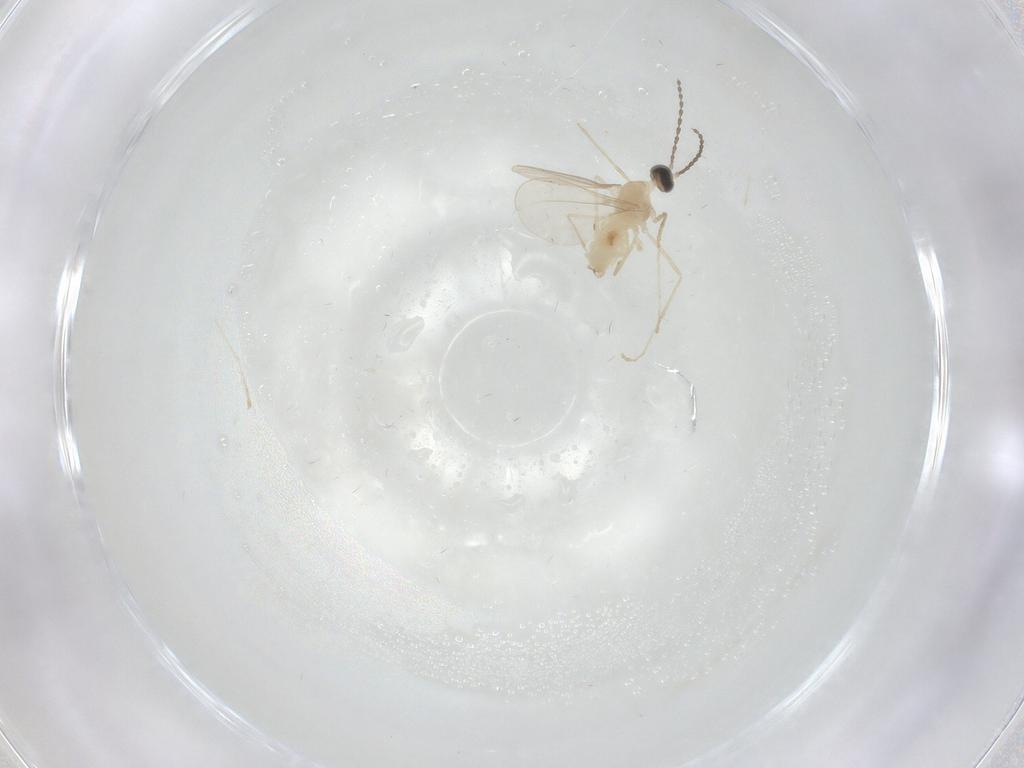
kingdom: Animalia
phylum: Arthropoda
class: Insecta
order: Diptera
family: Cecidomyiidae
